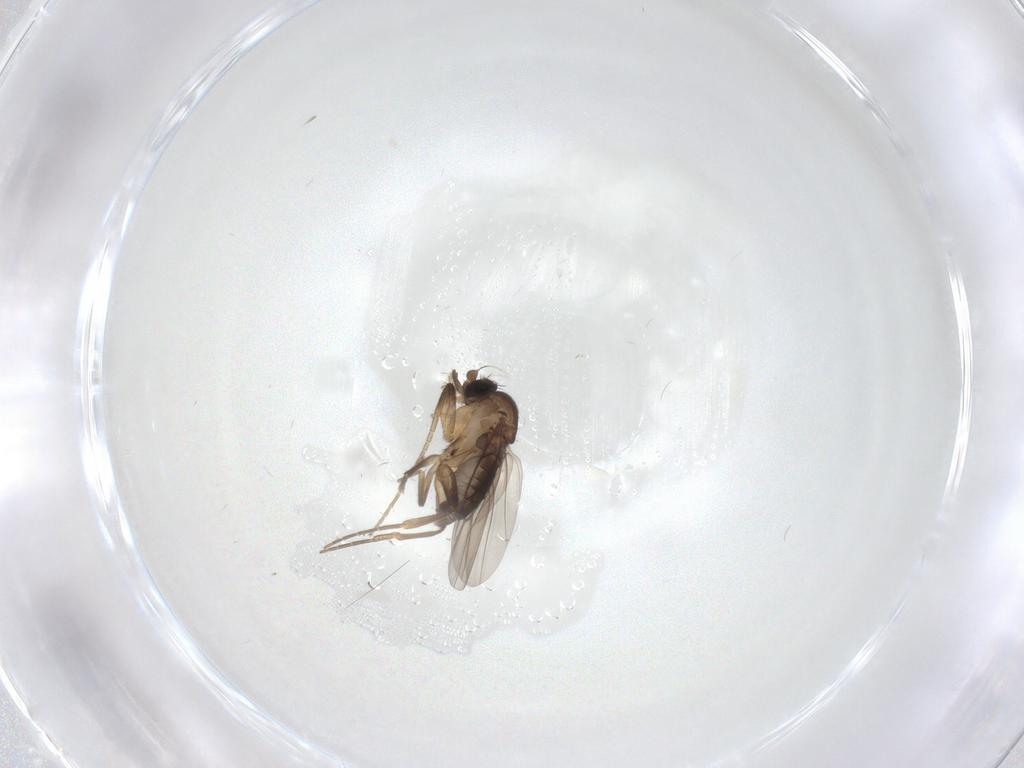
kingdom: Animalia
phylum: Arthropoda
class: Insecta
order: Diptera
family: Phoridae
